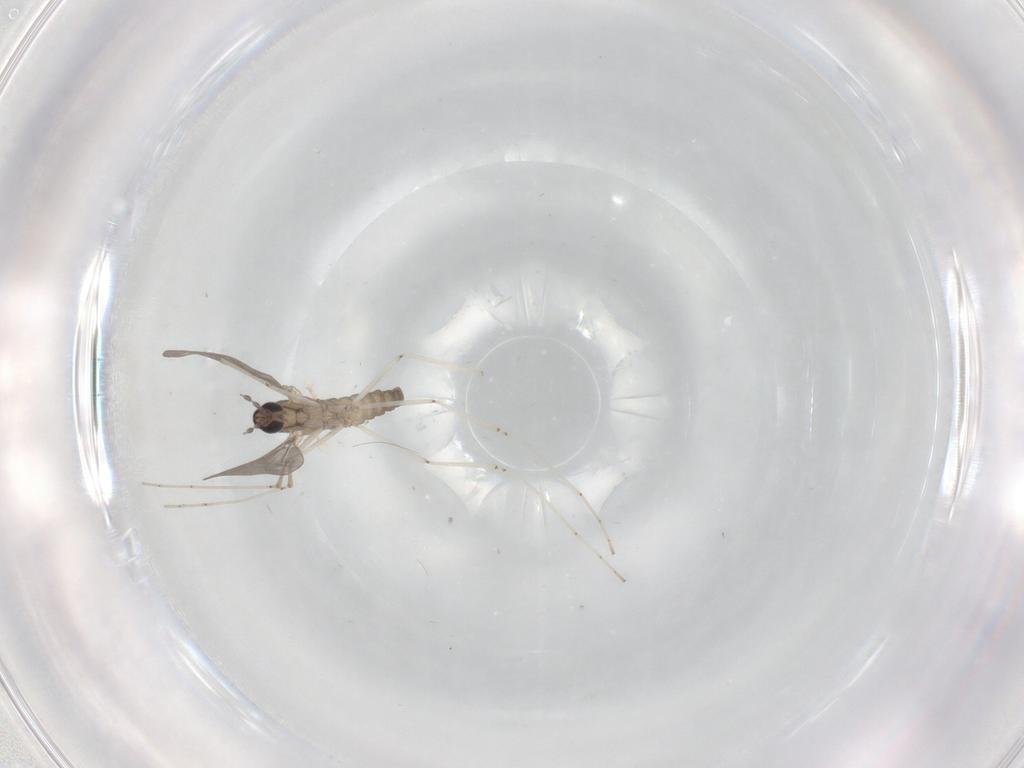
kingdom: Animalia
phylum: Arthropoda
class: Insecta
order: Diptera
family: Cecidomyiidae
